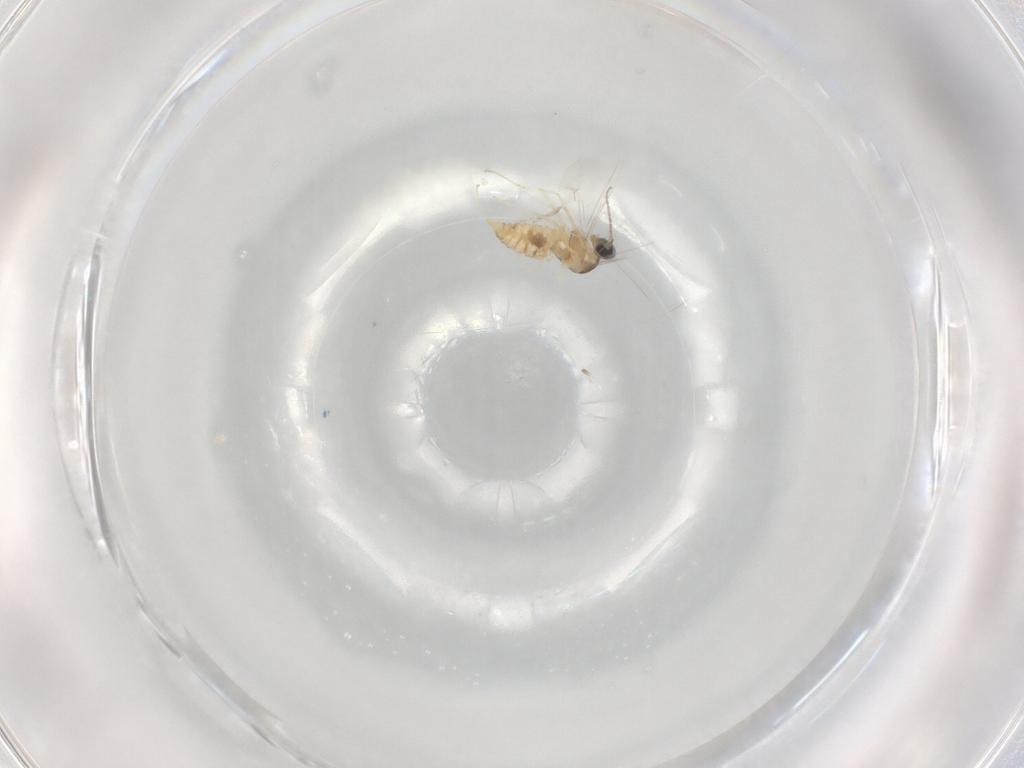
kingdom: Animalia
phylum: Arthropoda
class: Insecta
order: Diptera
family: Cecidomyiidae
